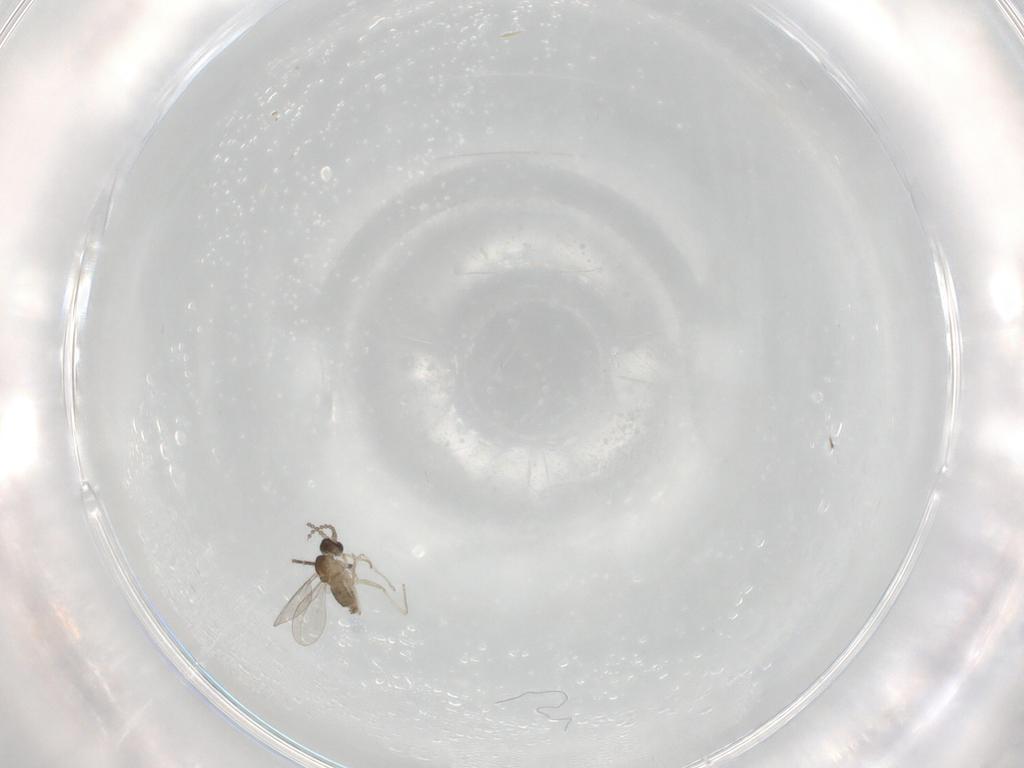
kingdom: Animalia
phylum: Arthropoda
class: Insecta
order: Diptera
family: Cecidomyiidae
